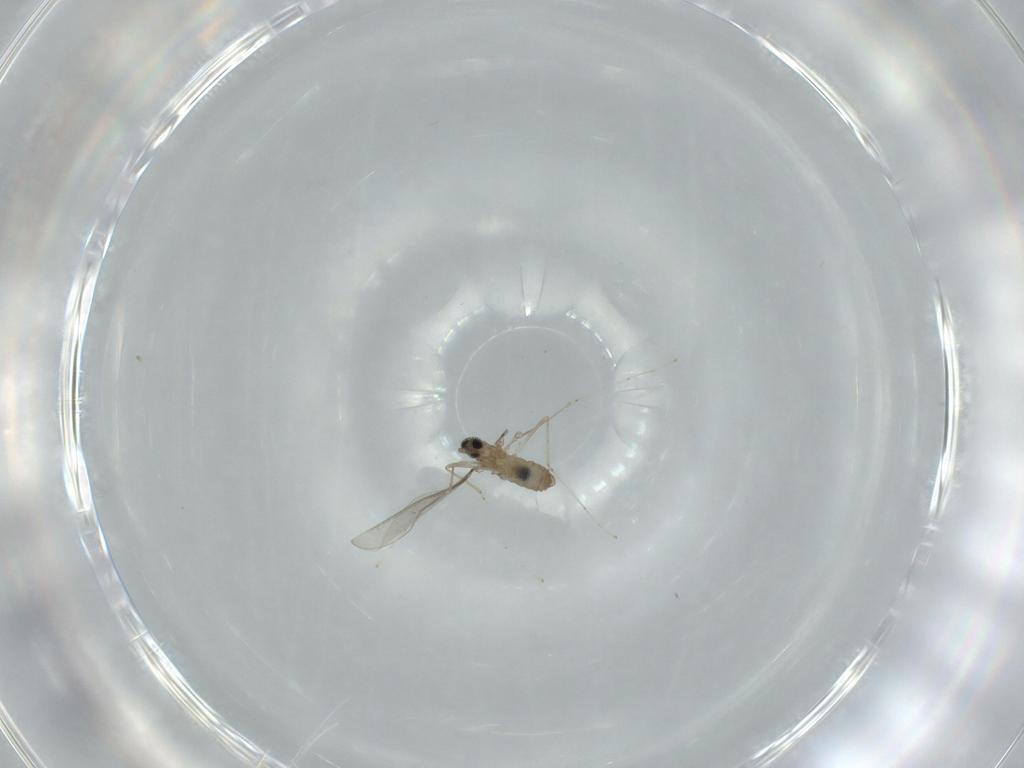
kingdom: Animalia
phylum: Arthropoda
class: Insecta
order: Diptera
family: Cecidomyiidae
